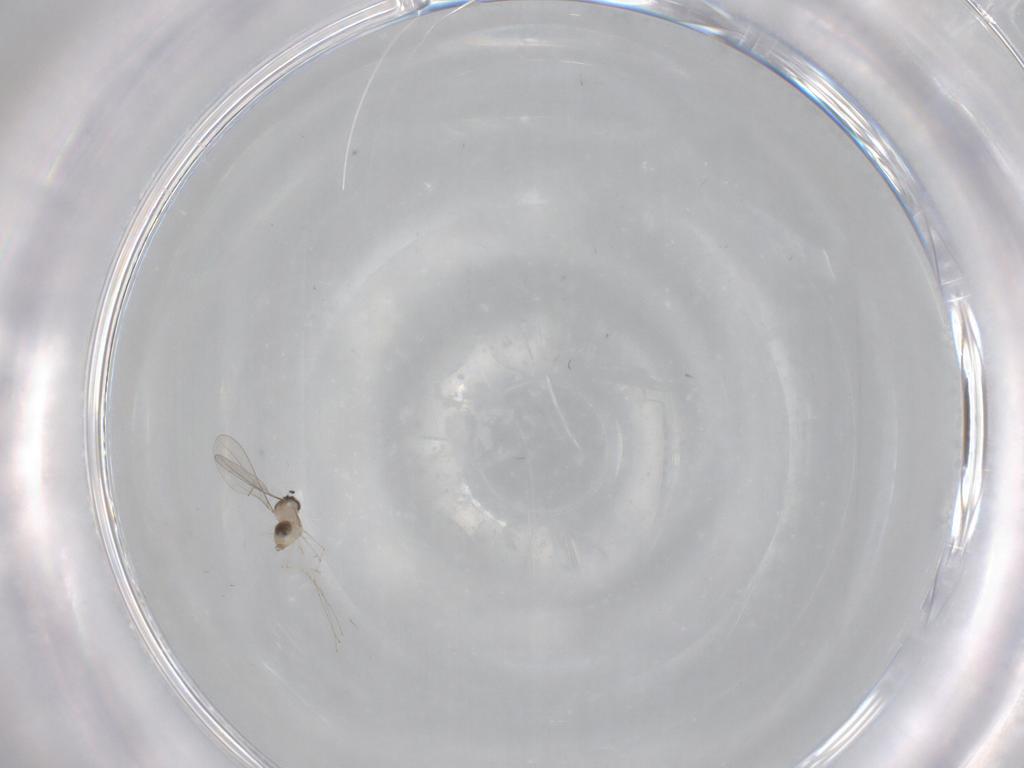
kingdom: Animalia
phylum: Arthropoda
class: Insecta
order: Diptera
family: Cecidomyiidae
